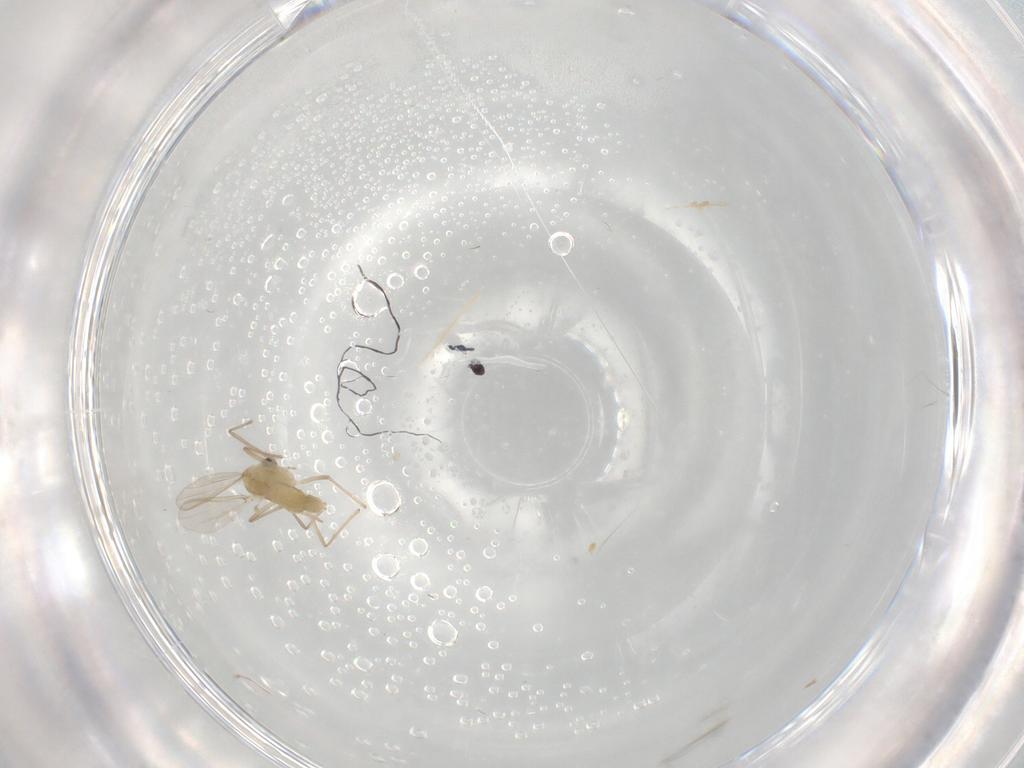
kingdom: Animalia
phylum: Arthropoda
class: Insecta
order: Diptera
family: Chironomidae
